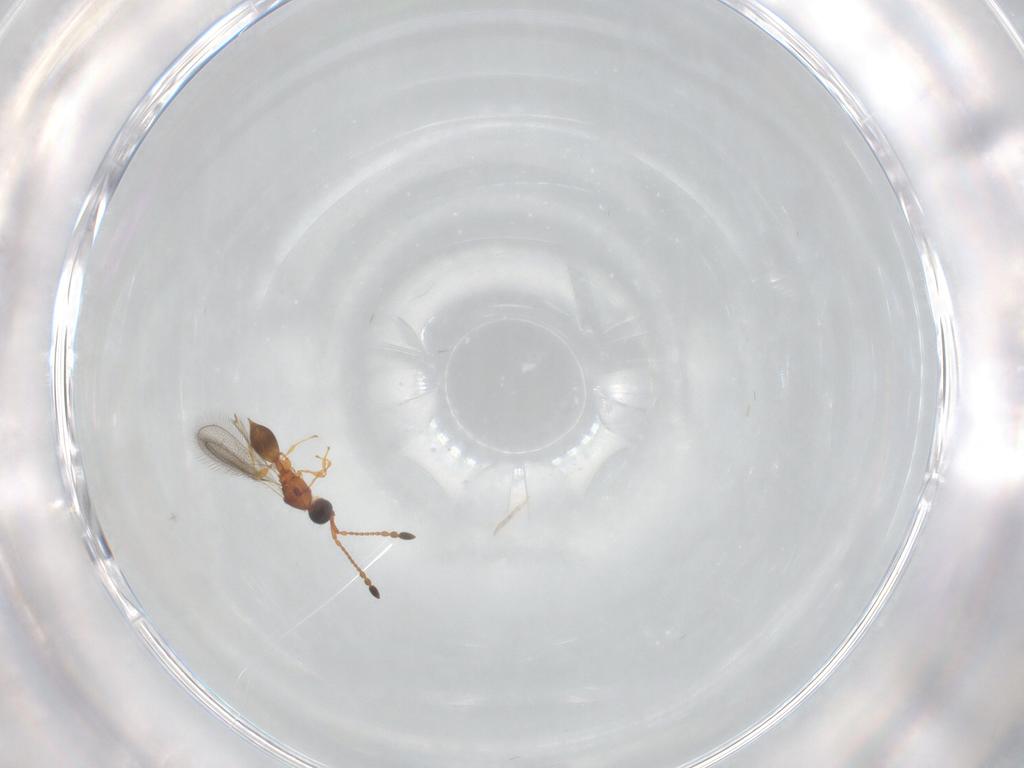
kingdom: Animalia
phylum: Arthropoda
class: Insecta
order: Hymenoptera
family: Diapriidae
